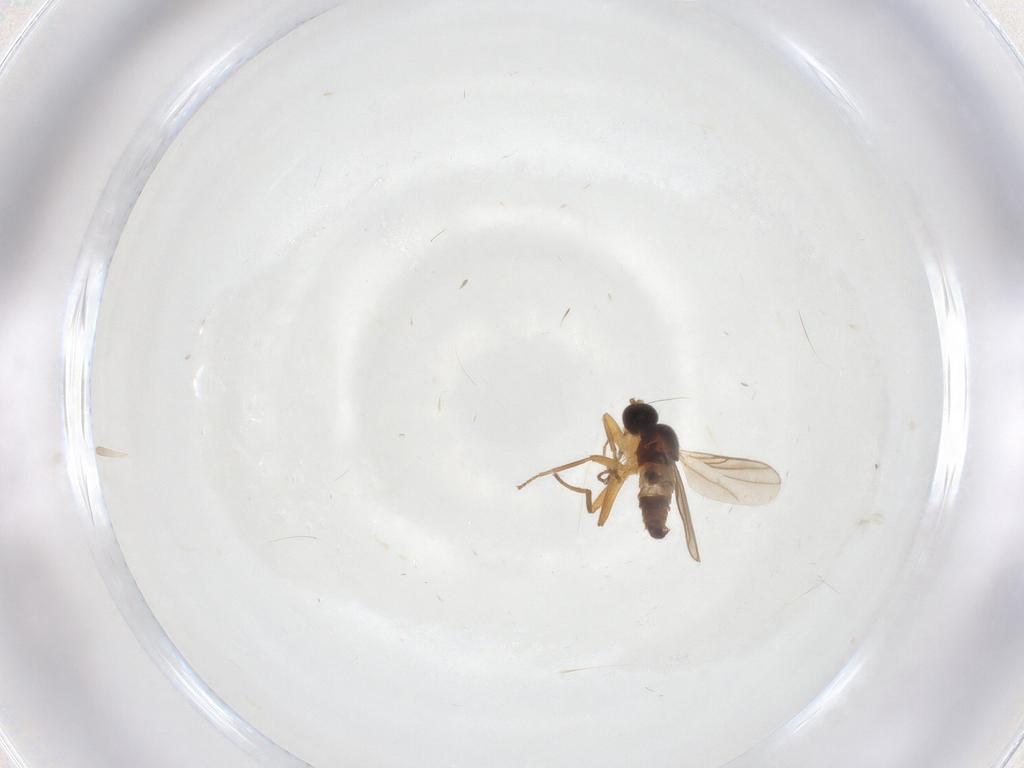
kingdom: Animalia
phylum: Arthropoda
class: Insecta
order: Diptera
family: Hybotidae
